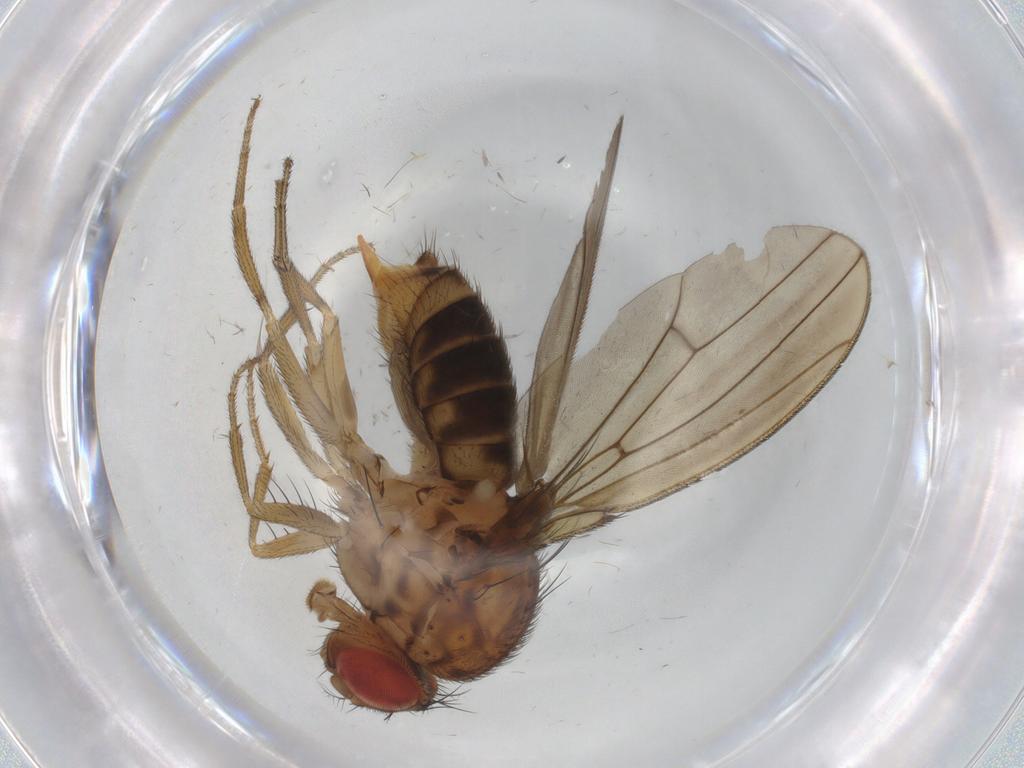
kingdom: Animalia
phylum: Arthropoda
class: Insecta
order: Diptera
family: Drosophilidae
